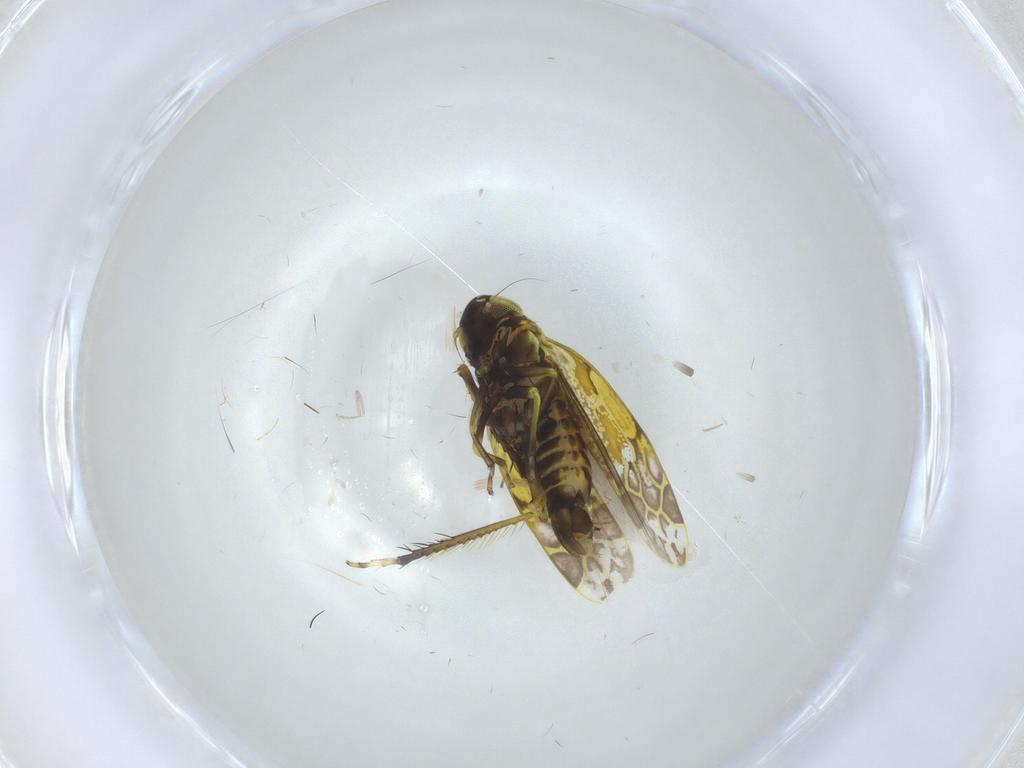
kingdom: Animalia
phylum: Arthropoda
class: Insecta
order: Hemiptera
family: Cicadellidae
